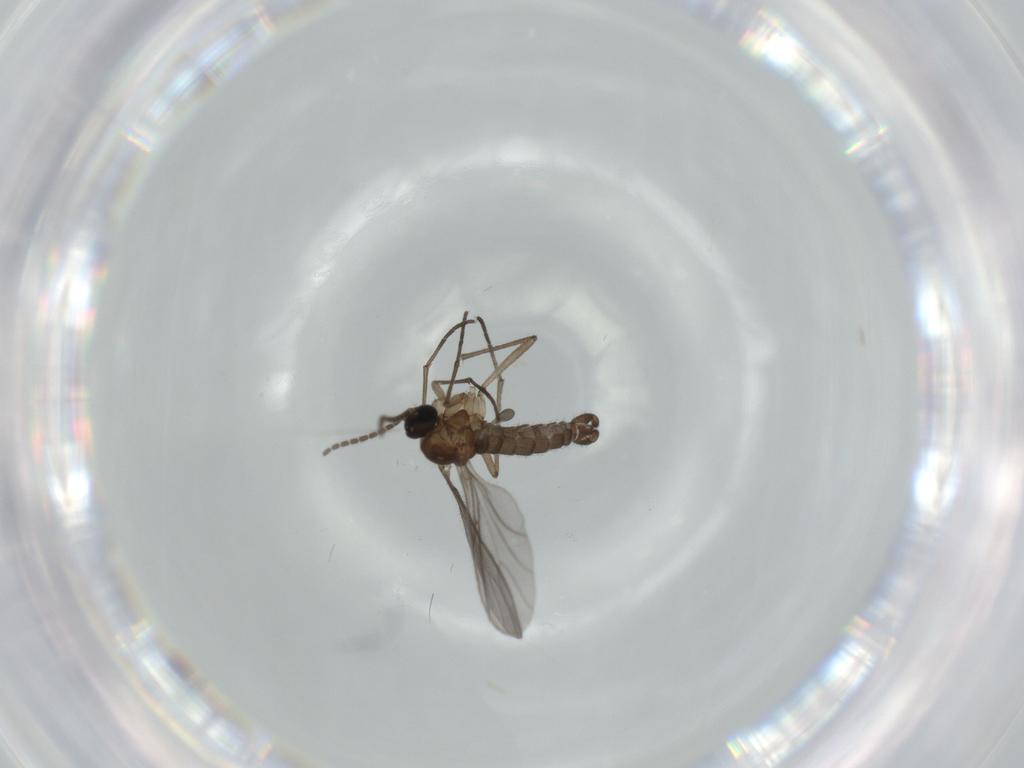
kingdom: Animalia
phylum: Arthropoda
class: Insecta
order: Diptera
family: Sciaridae
